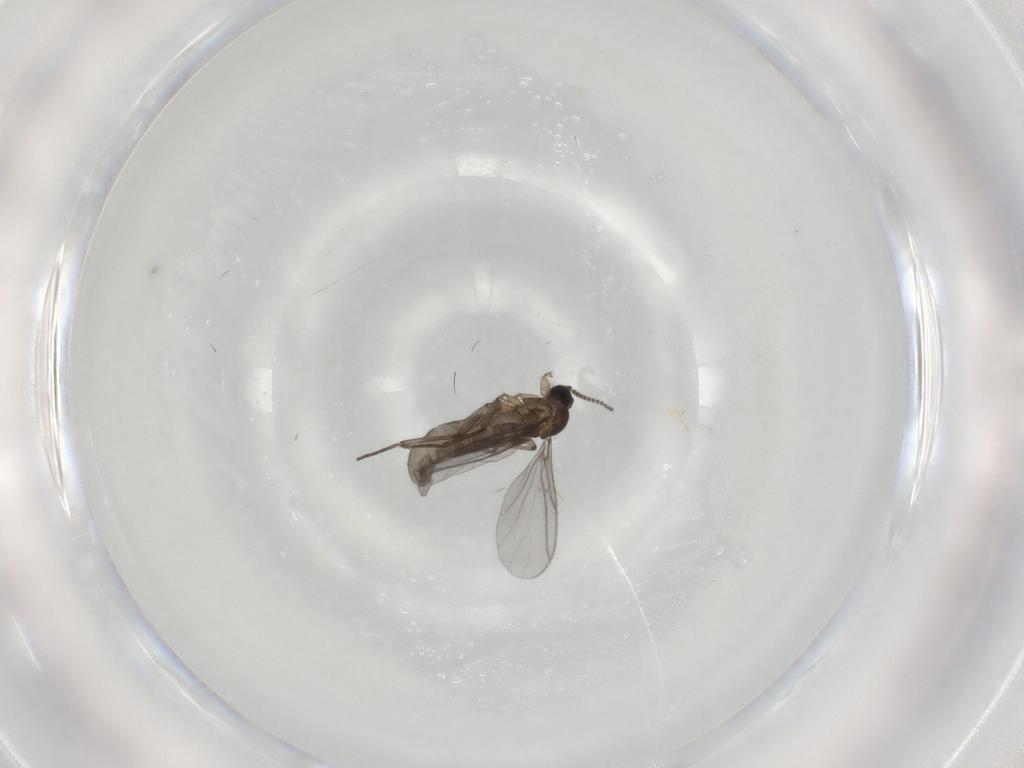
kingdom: Animalia
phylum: Arthropoda
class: Insecta
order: Diptera
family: Sciaridae
